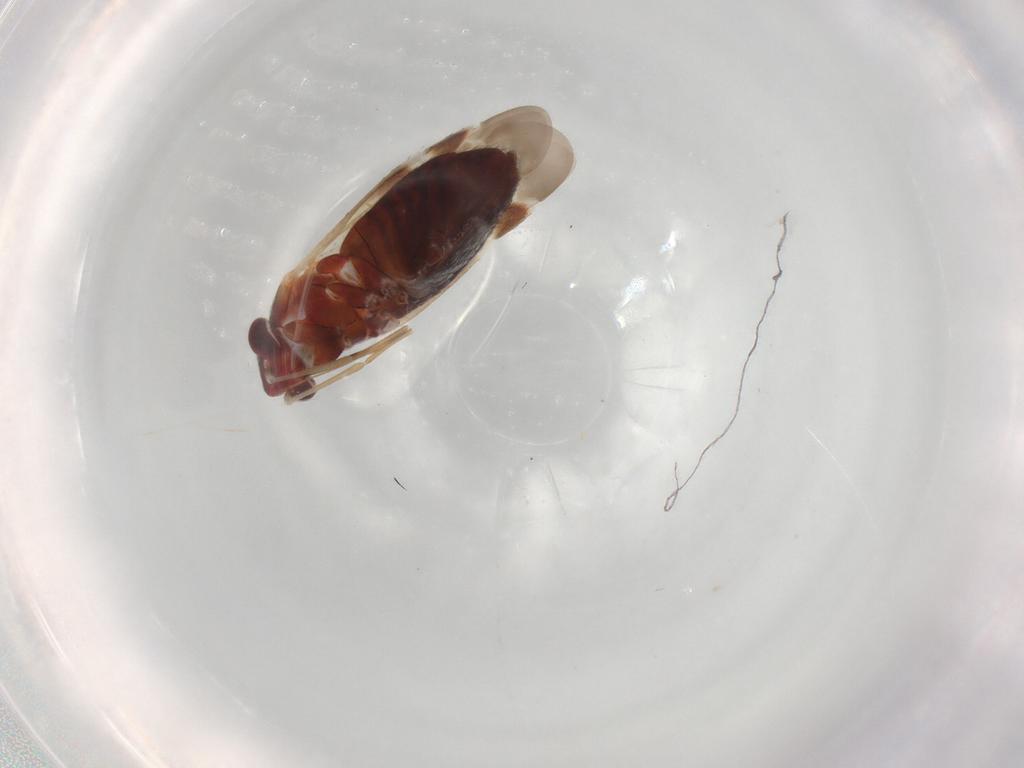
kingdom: Animalia
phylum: Arthropoda
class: Insecta
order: Hemiptera
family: Miridae
